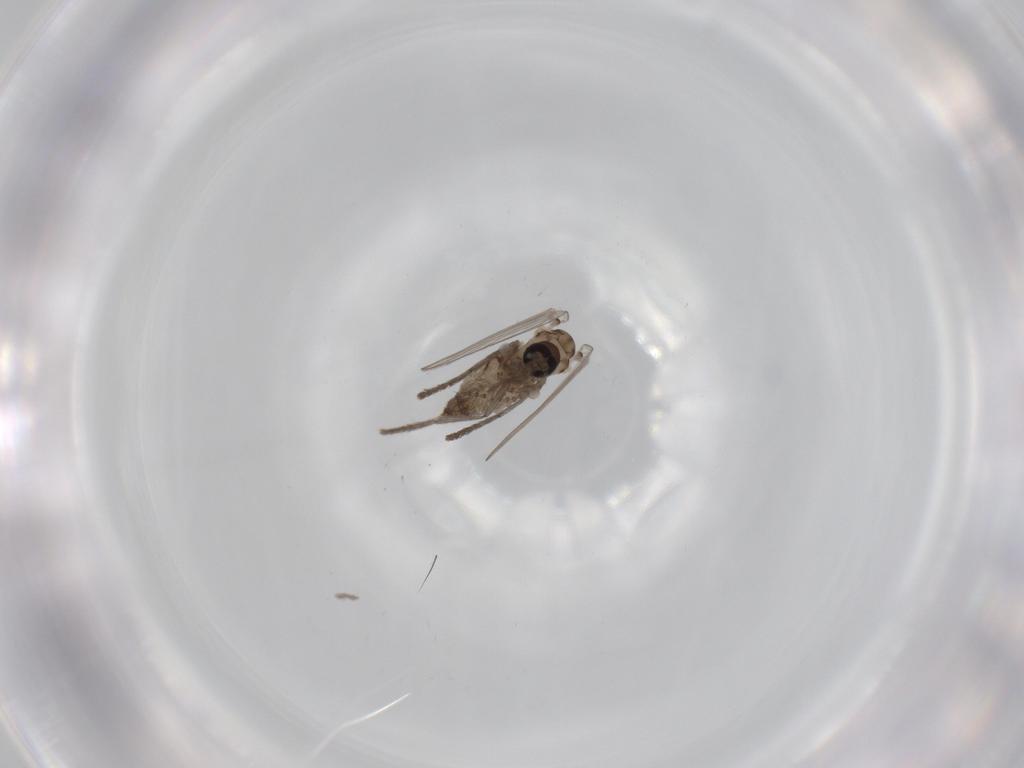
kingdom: Animalia
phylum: Arthropoda
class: Insecta
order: Diptera
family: Psychodidae
